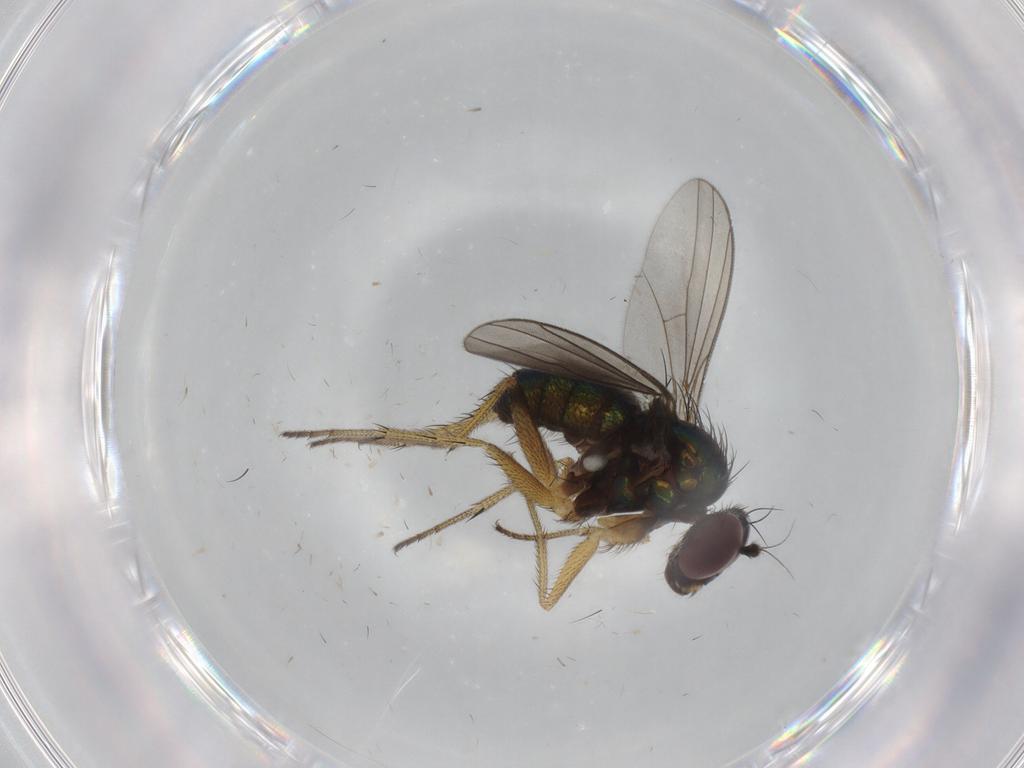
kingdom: Animalia
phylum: Arthropoda
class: Insecta
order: Diptera
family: Dolichopodidae
